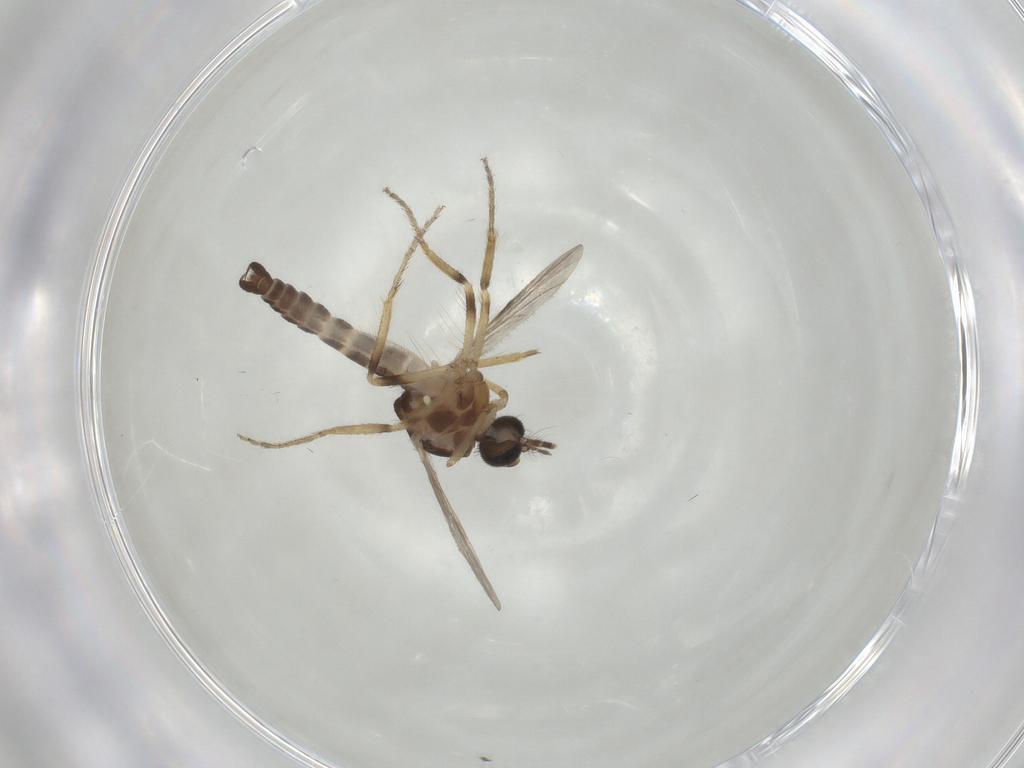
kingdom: Animalia
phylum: Arthropoda
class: Insecta
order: Diptera
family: Ceratopogonidae
